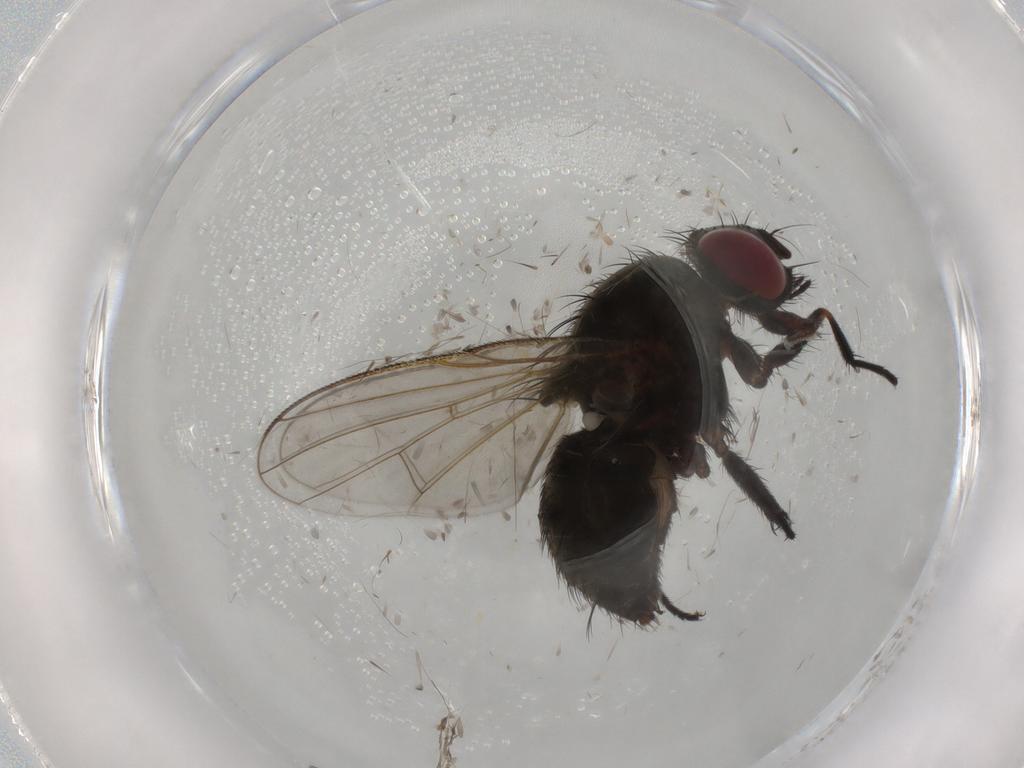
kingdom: Animalia
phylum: Arthropoda
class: Insecta
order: Diptera
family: Muscidae
